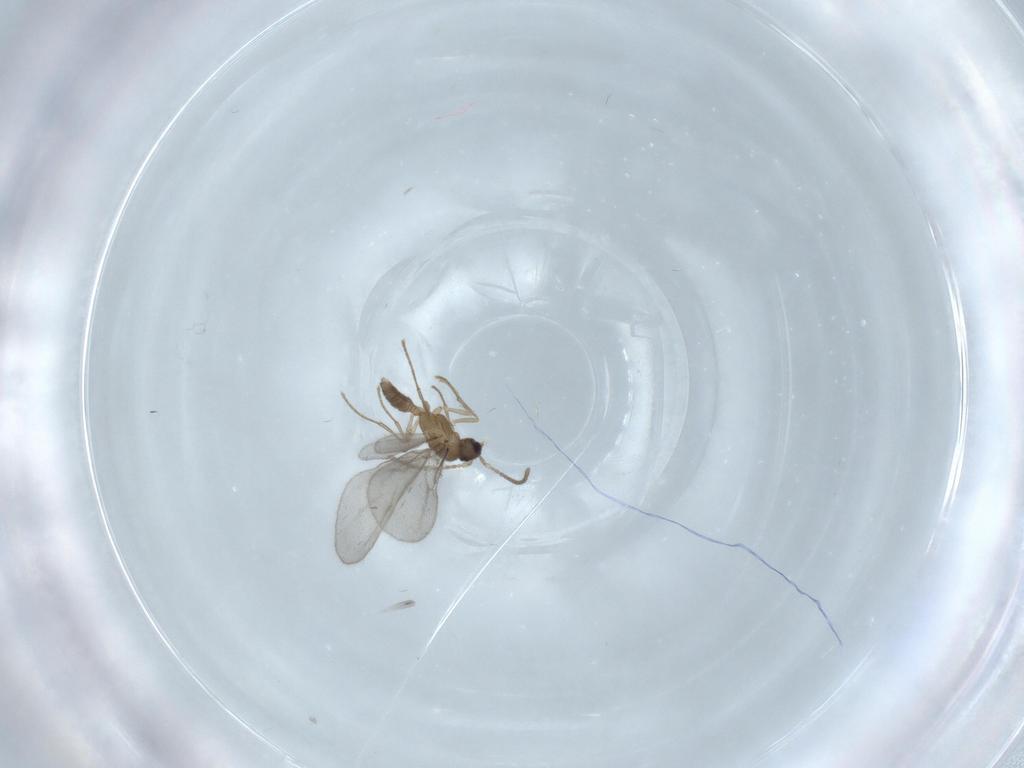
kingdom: Animalia
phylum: Arthropoda
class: Insecta
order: Hymenoptera
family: Formicidae
